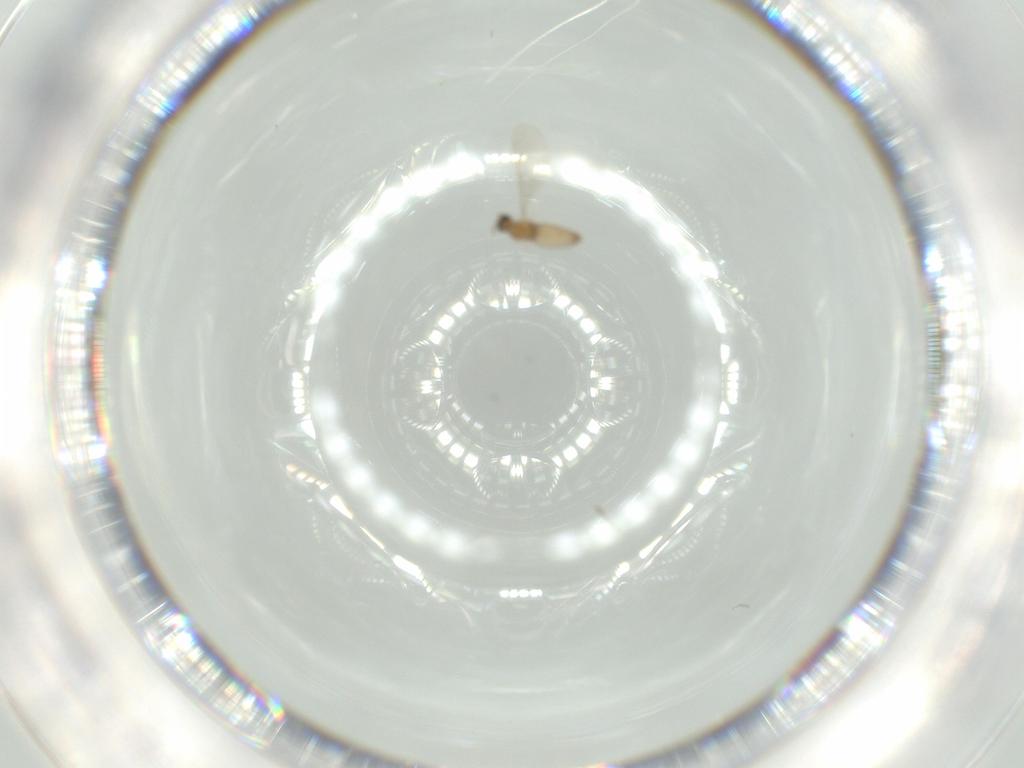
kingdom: Animalia
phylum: Arthropoda
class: Insecta
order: Diptera
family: Cecidomyiidae
